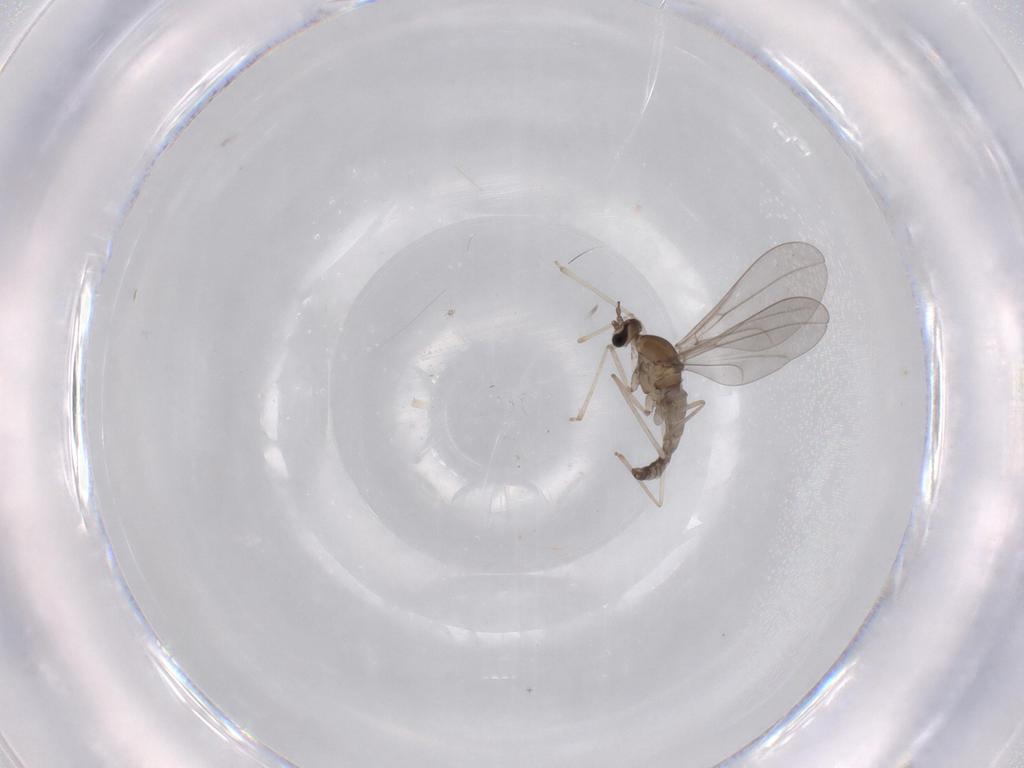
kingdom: Animalia
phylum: Arthropoda
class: Insecta
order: Diptera
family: Cecidomyiidae
